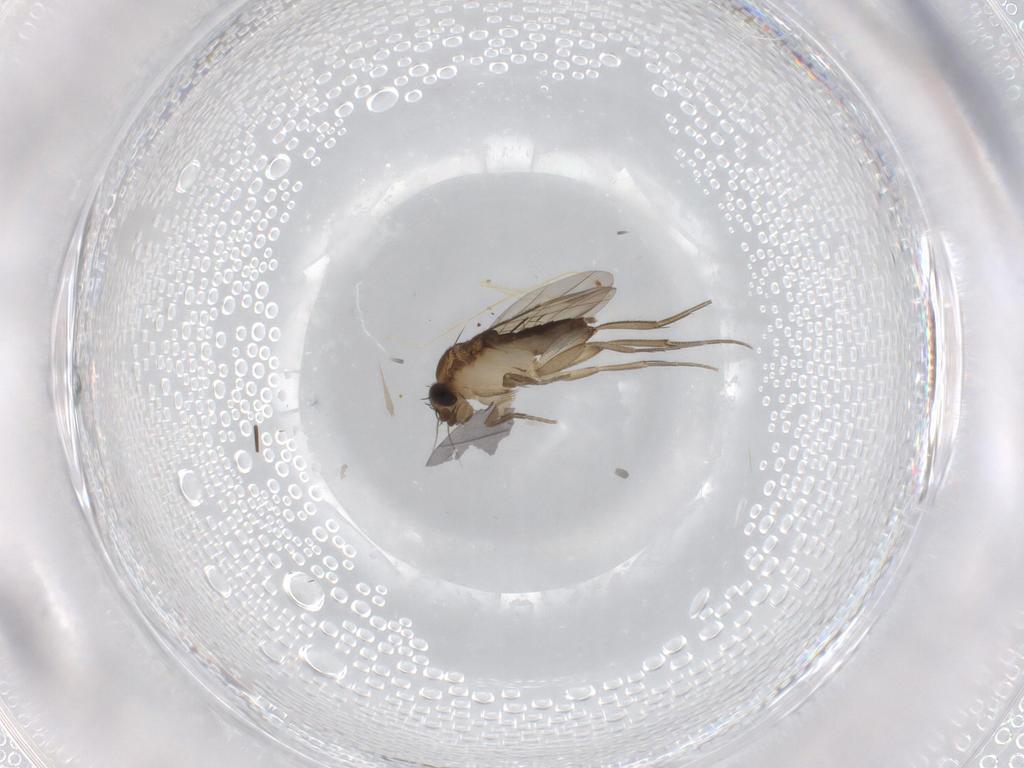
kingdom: Animalia
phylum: Arthropoda
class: Insecta
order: Diptera
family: Phoridae
